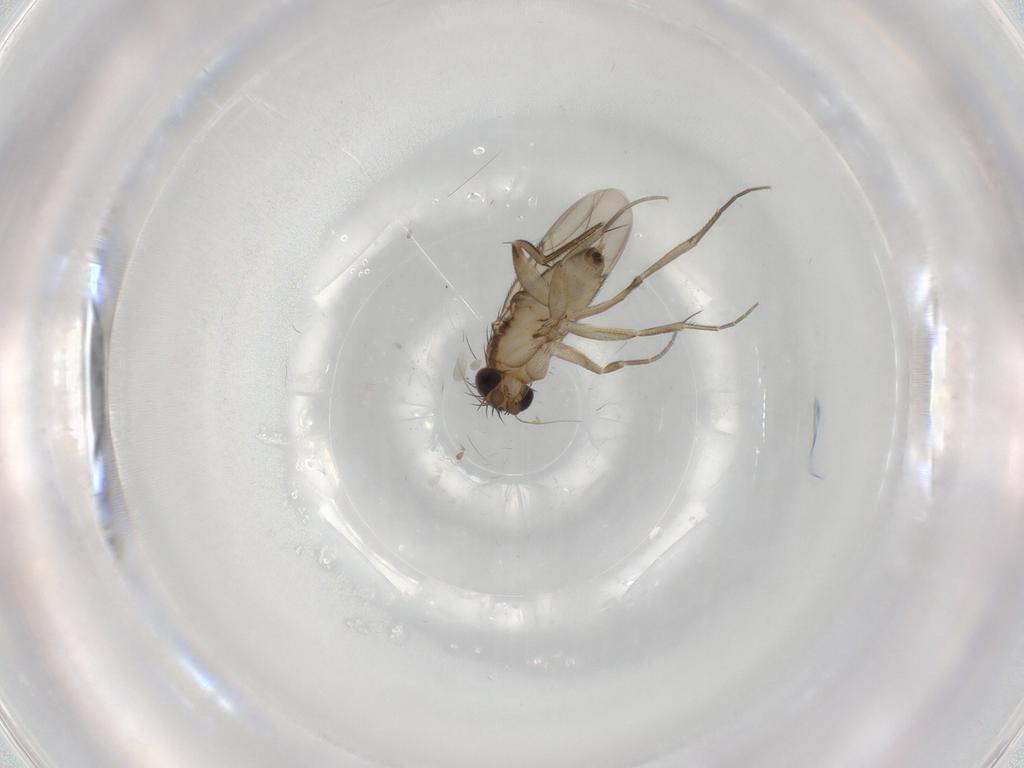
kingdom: Animalia
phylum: Arthropoda
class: Insecta
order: Diptera
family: Phoridae
